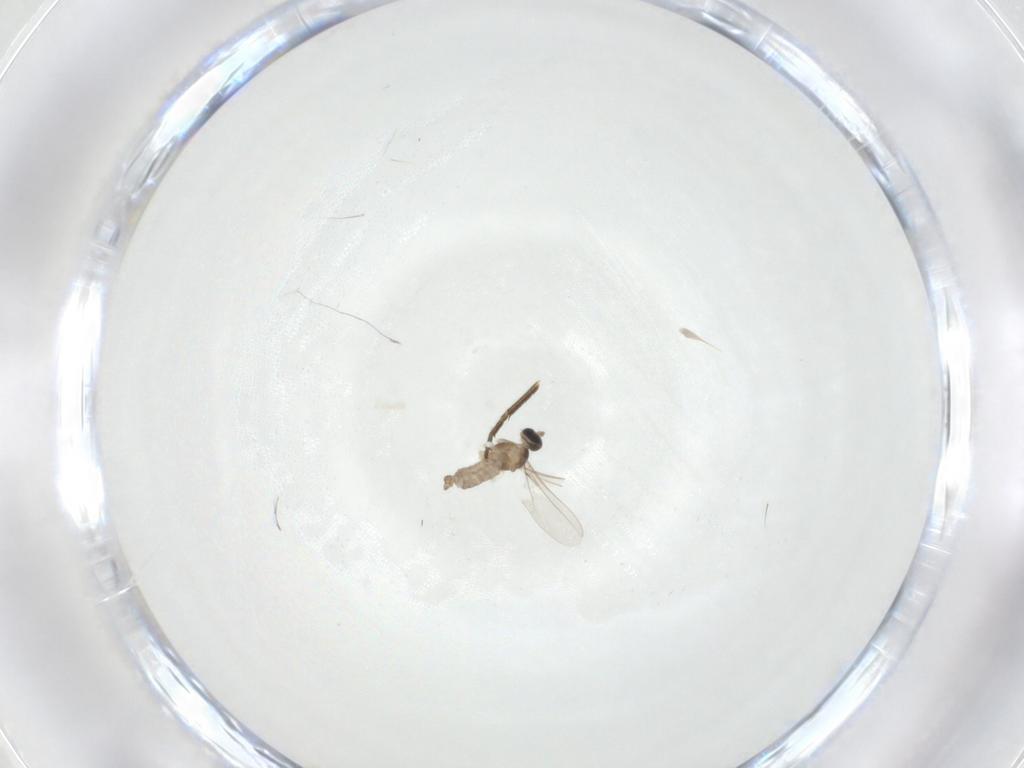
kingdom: Animalia
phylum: Arthropoda
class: Insecta
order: Diptera
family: Cecidomyiidae
